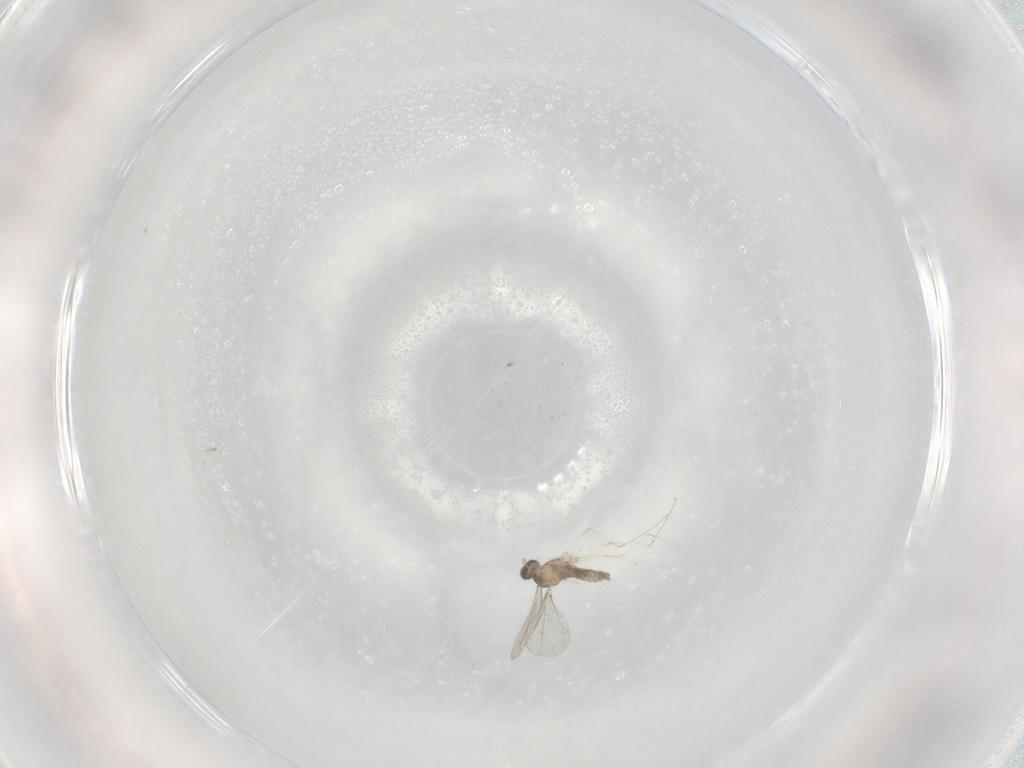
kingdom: Animalia
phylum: Arthropoda
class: Insecta
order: Diptera
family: Cecidomyiidae
